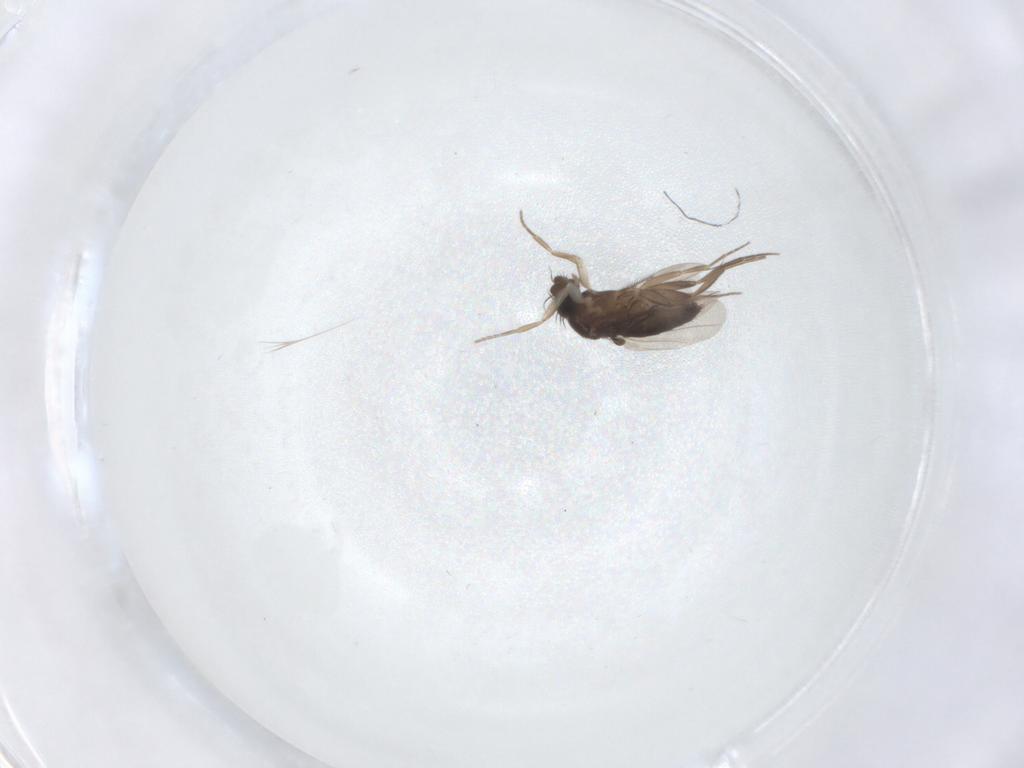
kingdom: Animalia
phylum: Arthropoda
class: Insecta
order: Diptera
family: Phoridae
